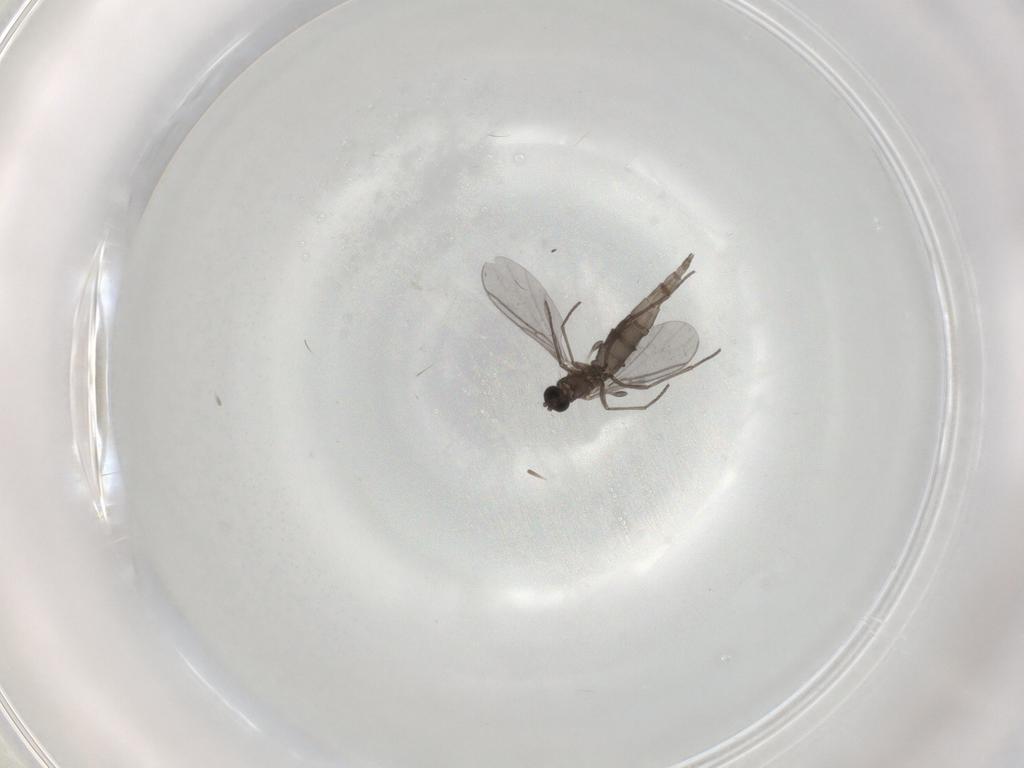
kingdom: Animalia
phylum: Arthropoda
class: Insecta
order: Diptera
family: Sciaridae
